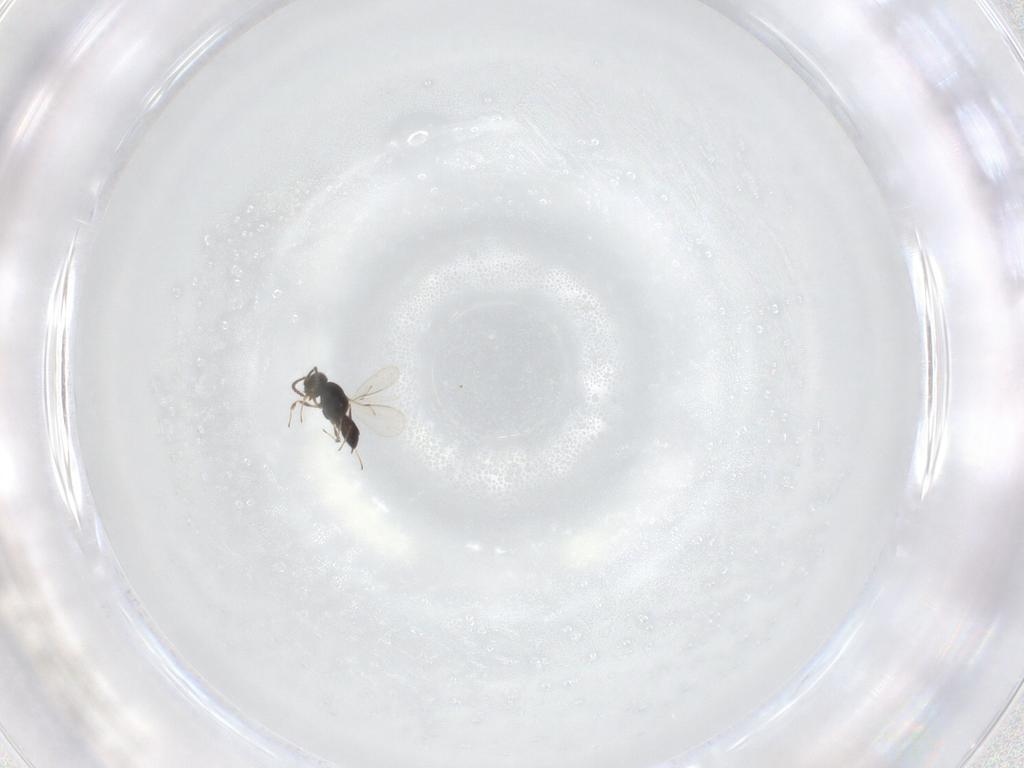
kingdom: Animalia
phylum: Arthropoda
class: Insecta
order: Hymenoptera
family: Scelionidae
